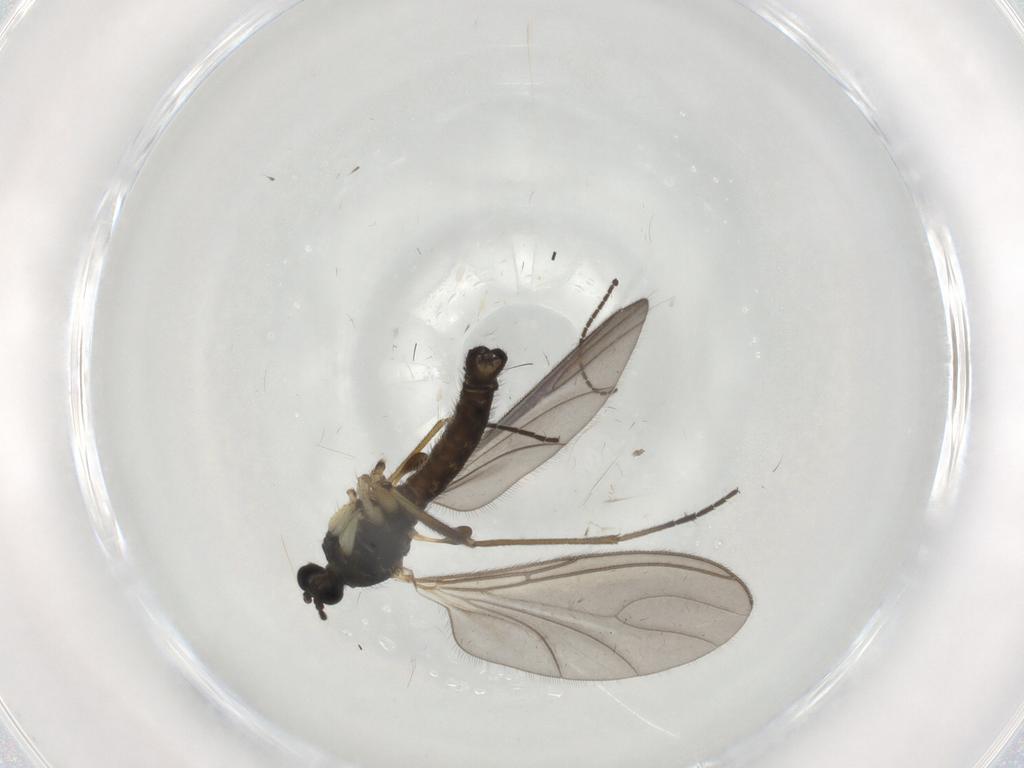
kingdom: Animalia
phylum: Arthropoda
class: Insecta
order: Diptera
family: Sciaridae
